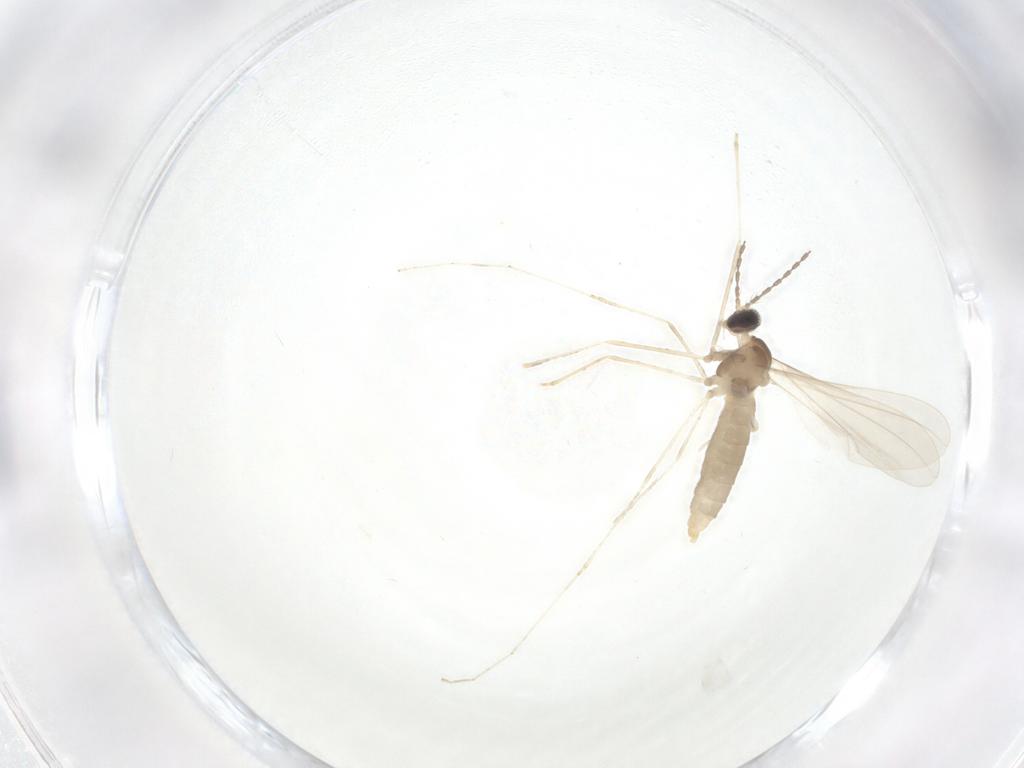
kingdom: Animalia
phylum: Arthropoda
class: Insecta
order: Diptera
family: Cecidomyiidae
